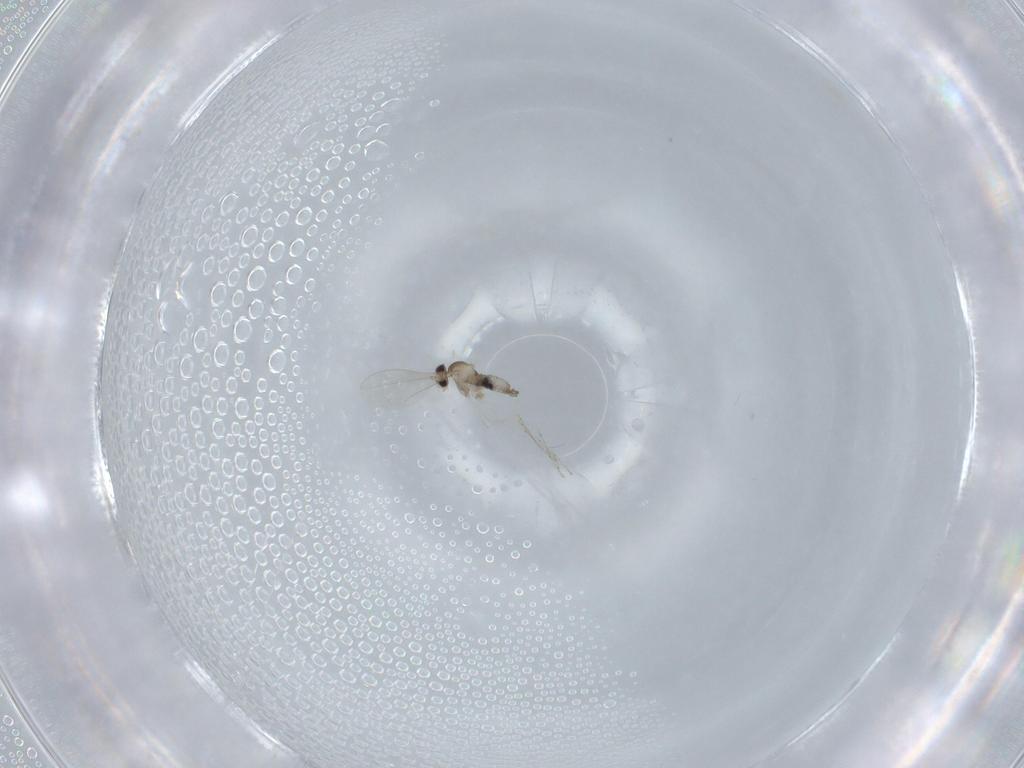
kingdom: Animalia
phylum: Arthropoda
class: Insecta
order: Diptera
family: Cecidomyiidae
